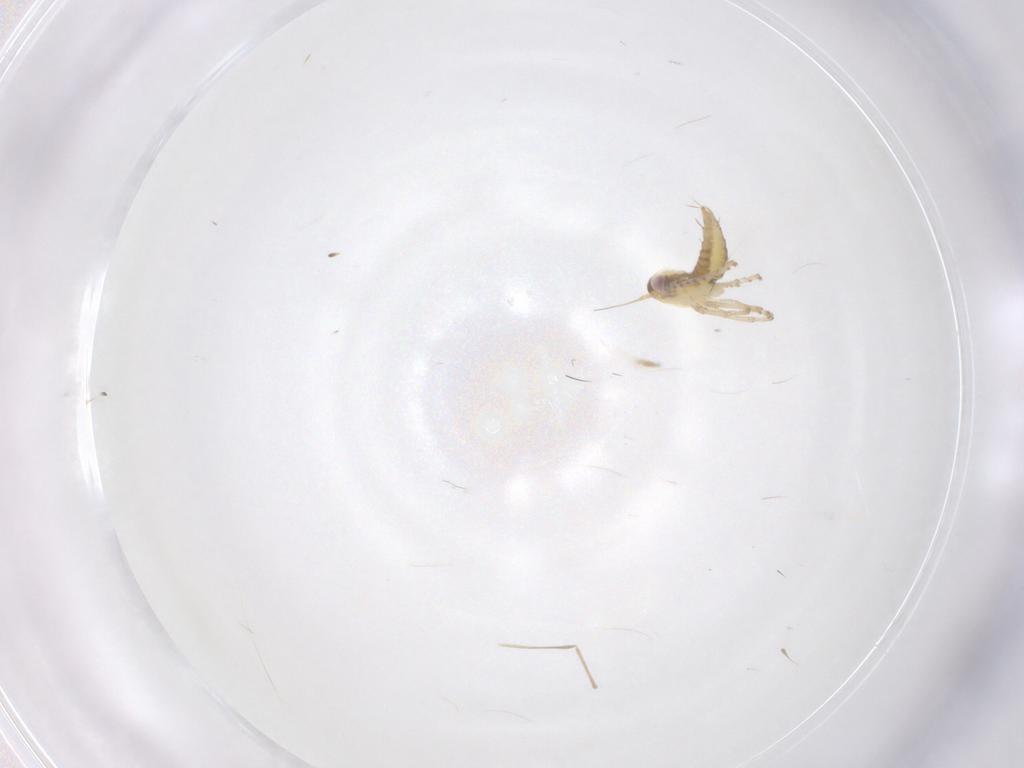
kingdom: Animalia
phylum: Arthropoda
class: Insecta
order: Hemiptera
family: Cicadellidae
